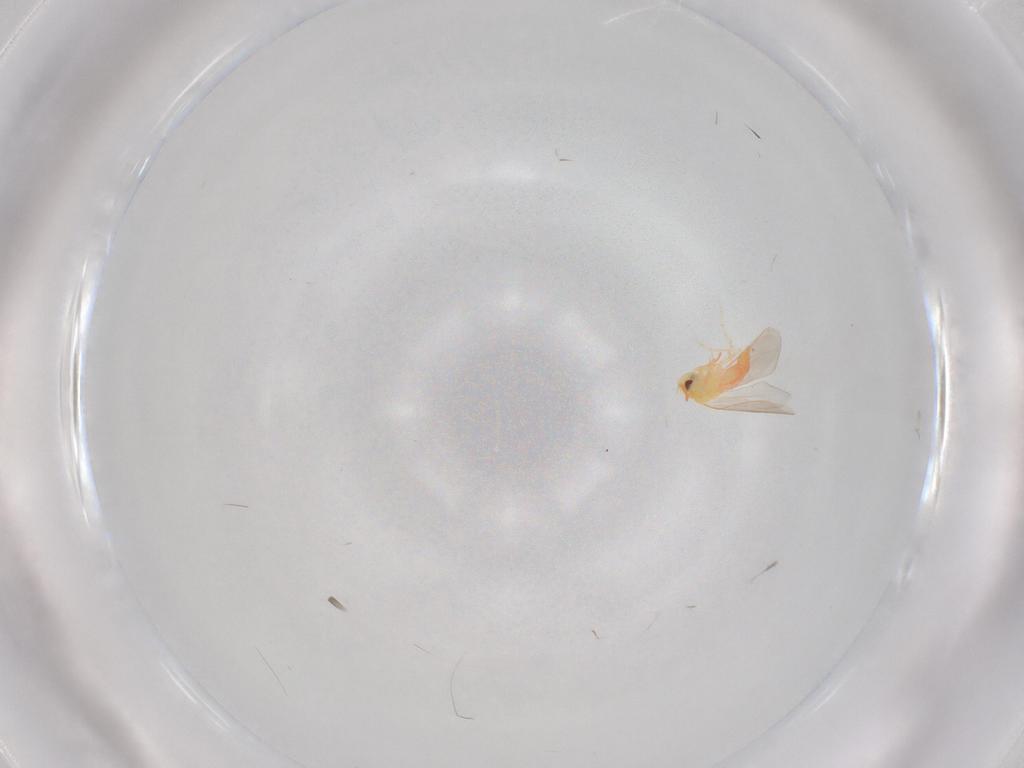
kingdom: Animalia
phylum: Arthropoda
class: Insecta
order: Hemiptera
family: Aleyrodidae
